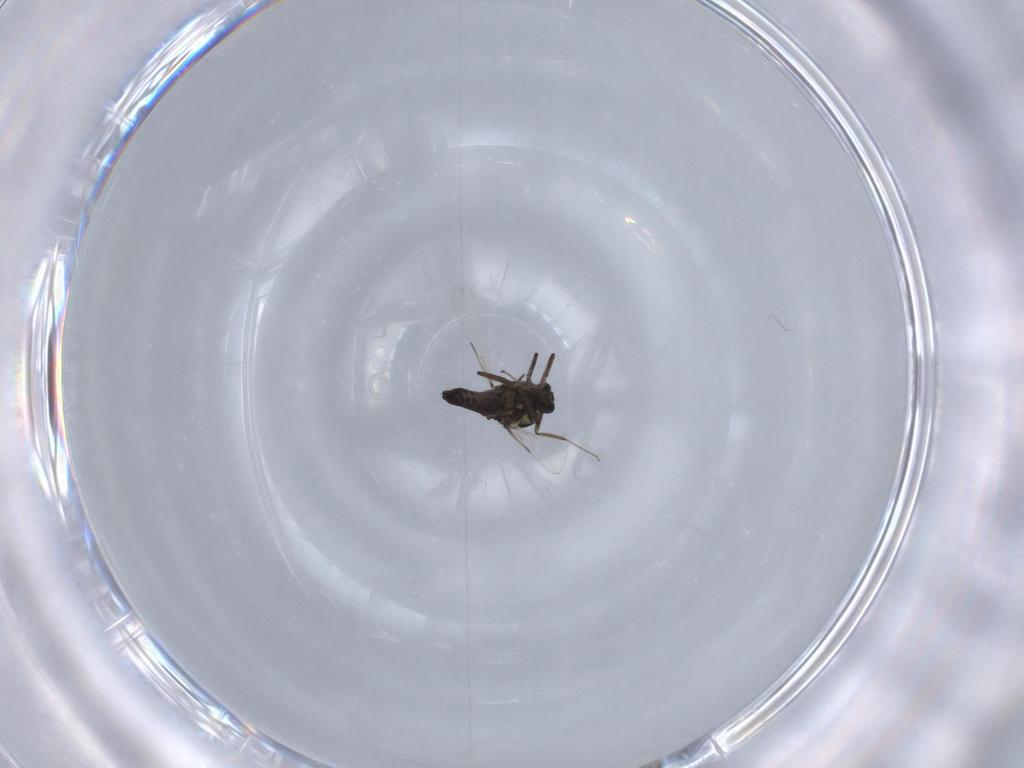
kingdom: Animalia
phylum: Arthropoda
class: Insecta
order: Diptera
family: Ceratopogonidae
